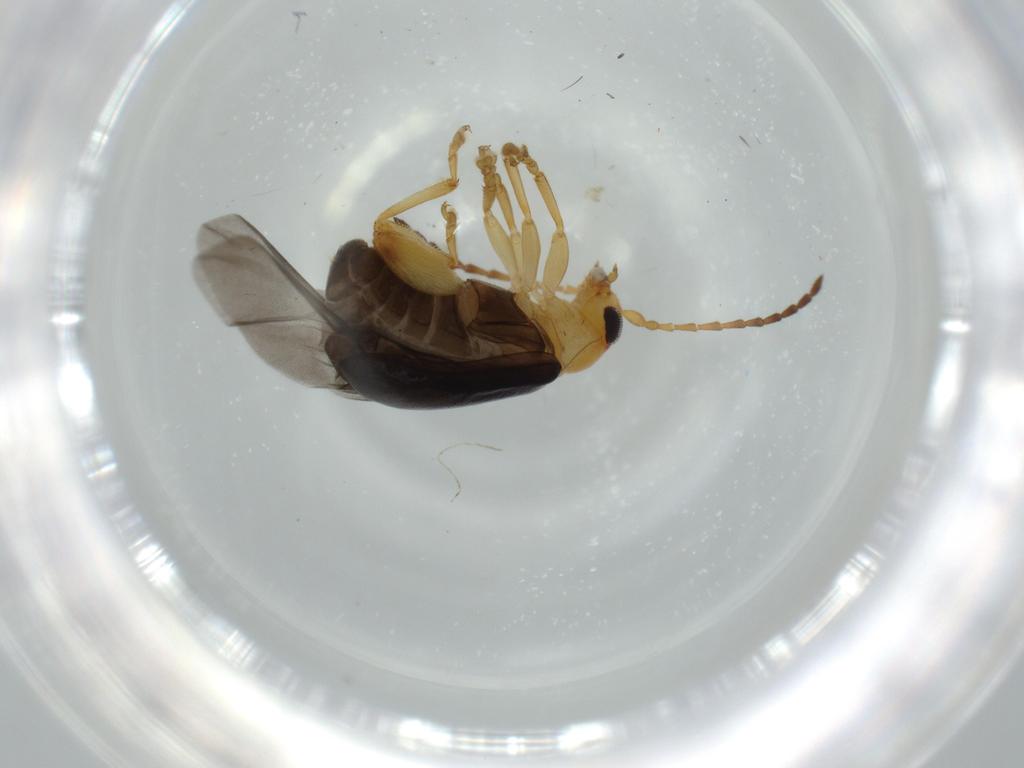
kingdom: Animalia
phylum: Arthropoda
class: Insecta
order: Coleoptera
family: Chrysomelidae
